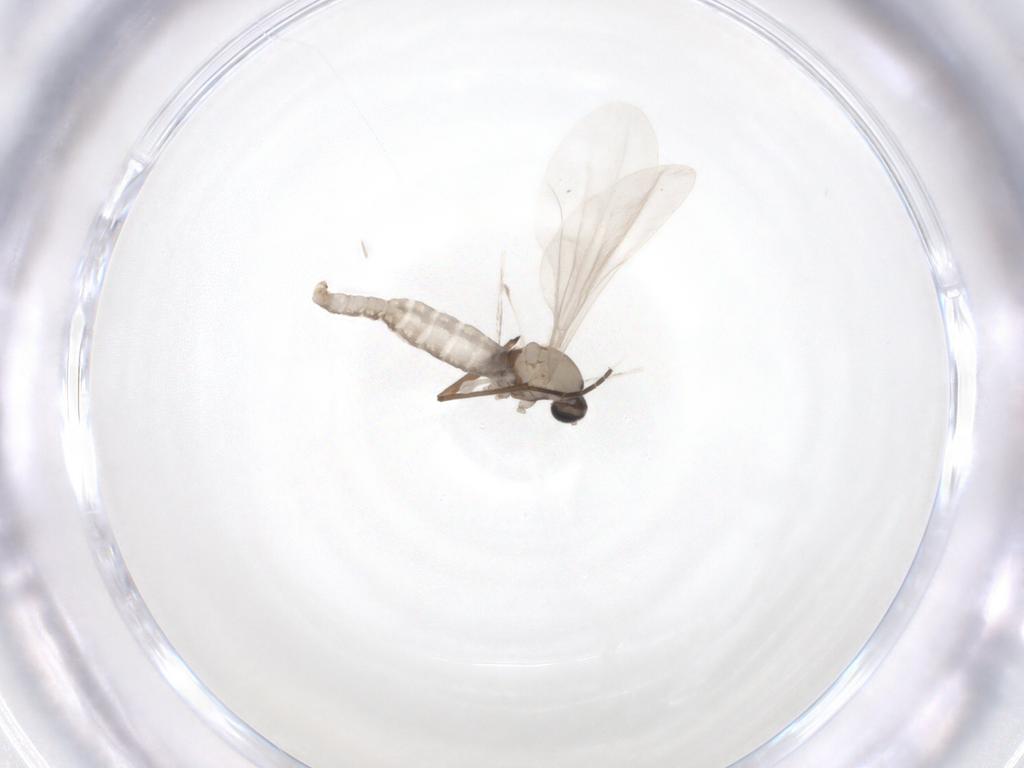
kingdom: Animalia
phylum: Arthropoda
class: Insecta
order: Diptera
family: Cecidomyiidae
